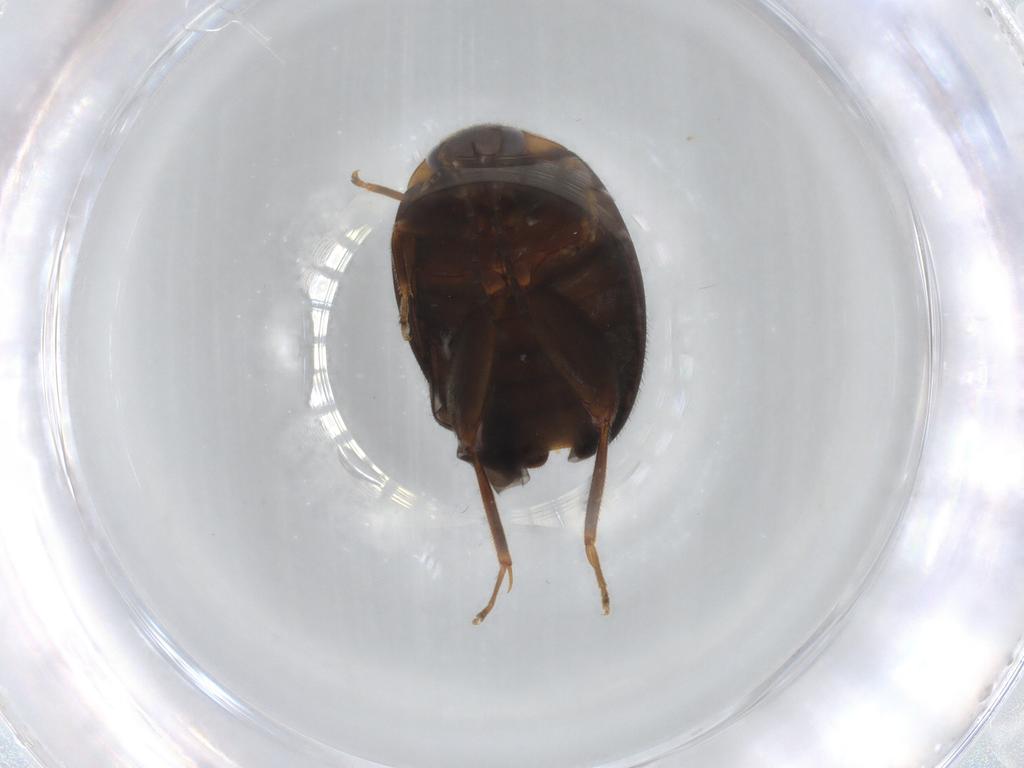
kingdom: Animalia
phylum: Arthropoda
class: Insecta
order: Coleoptera
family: Scirtidae
